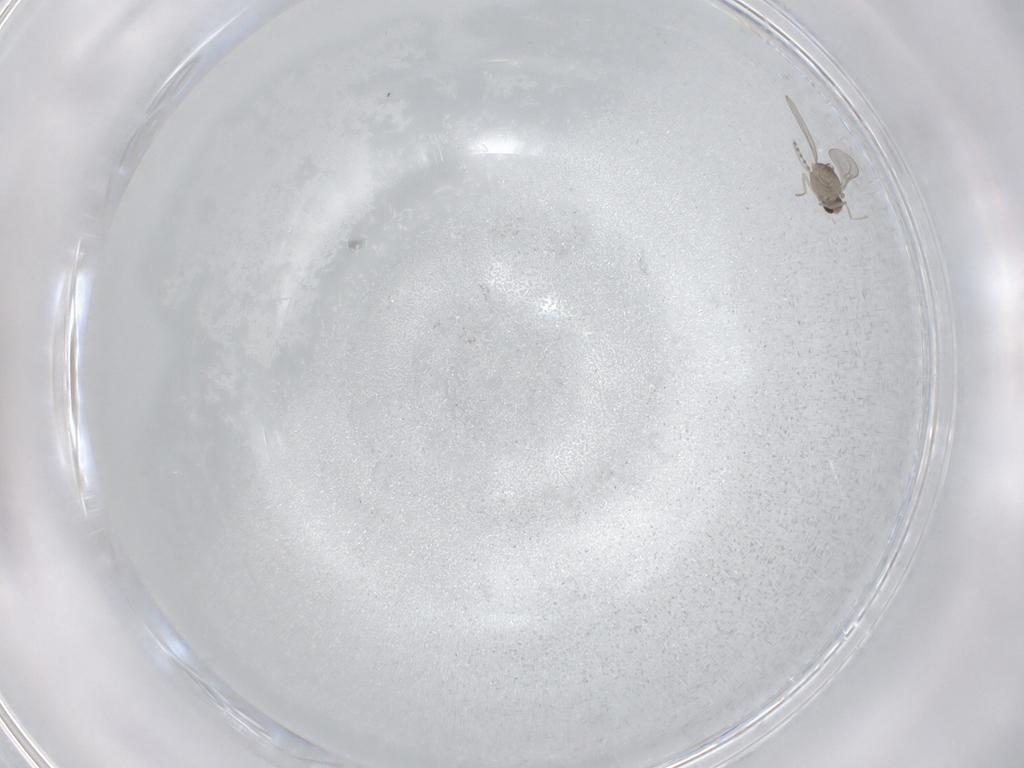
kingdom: Animalia
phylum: Arthropoda
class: Insecta
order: Diptera
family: Cecidomyiidae
